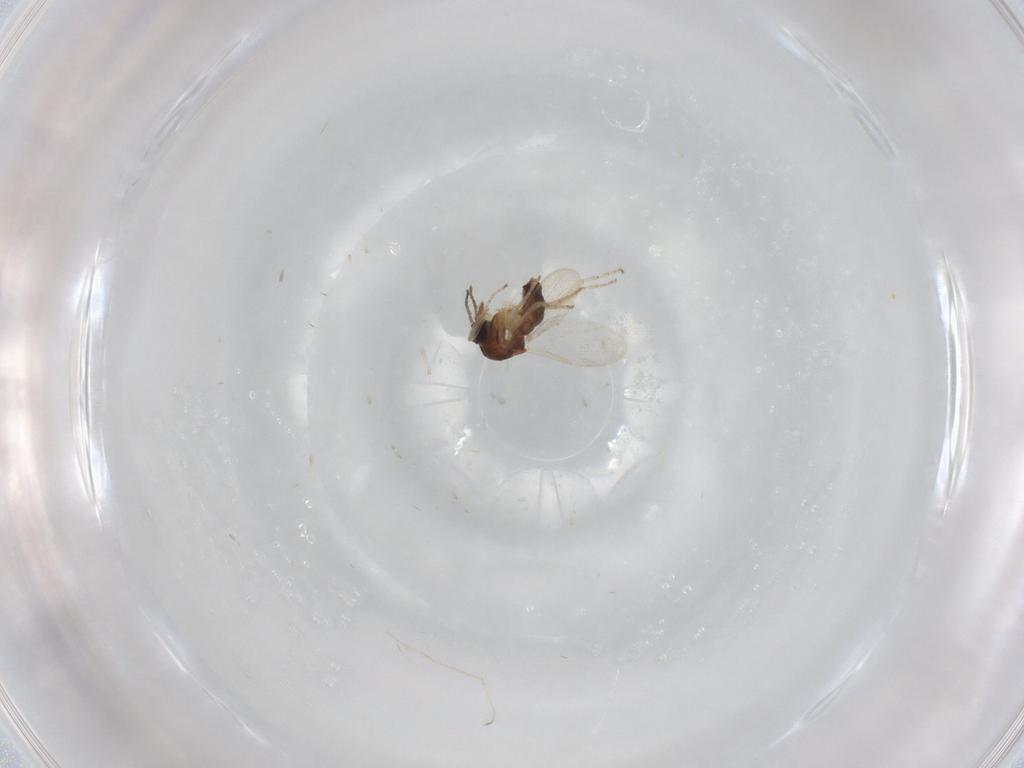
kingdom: Animalia
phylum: Arthropoda
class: Insecta
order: Diptera
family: Ceratopogonidae
